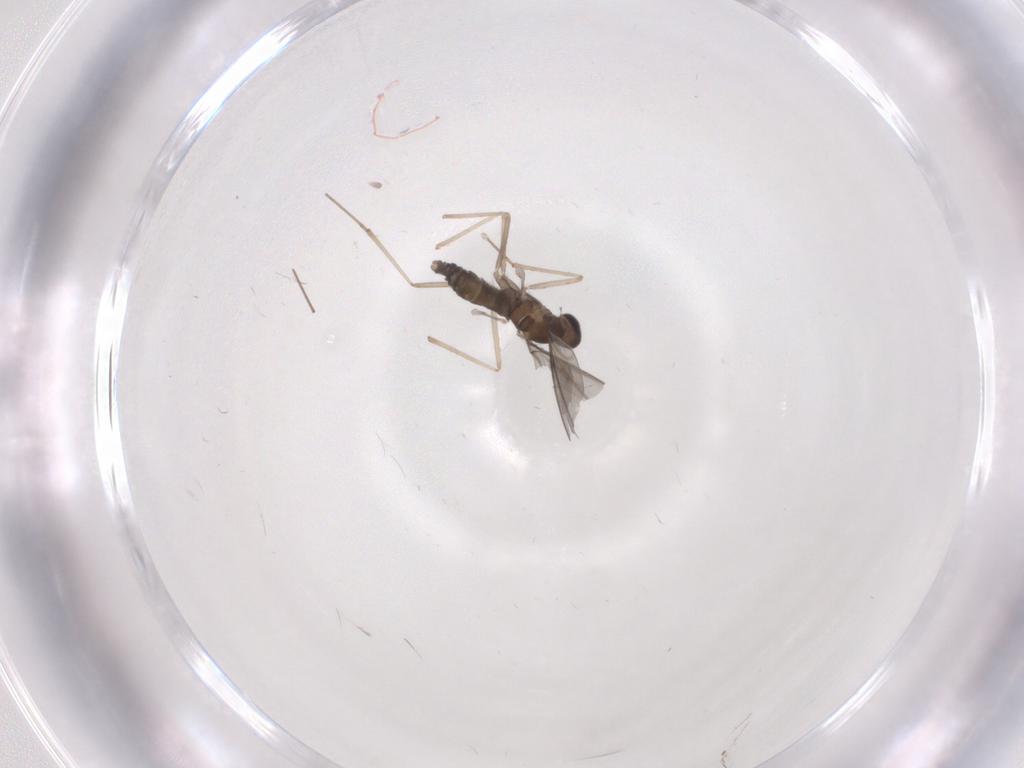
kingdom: Animalia
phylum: Arthropoda
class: Insecta
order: Diptera
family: Cecidomyiidae
